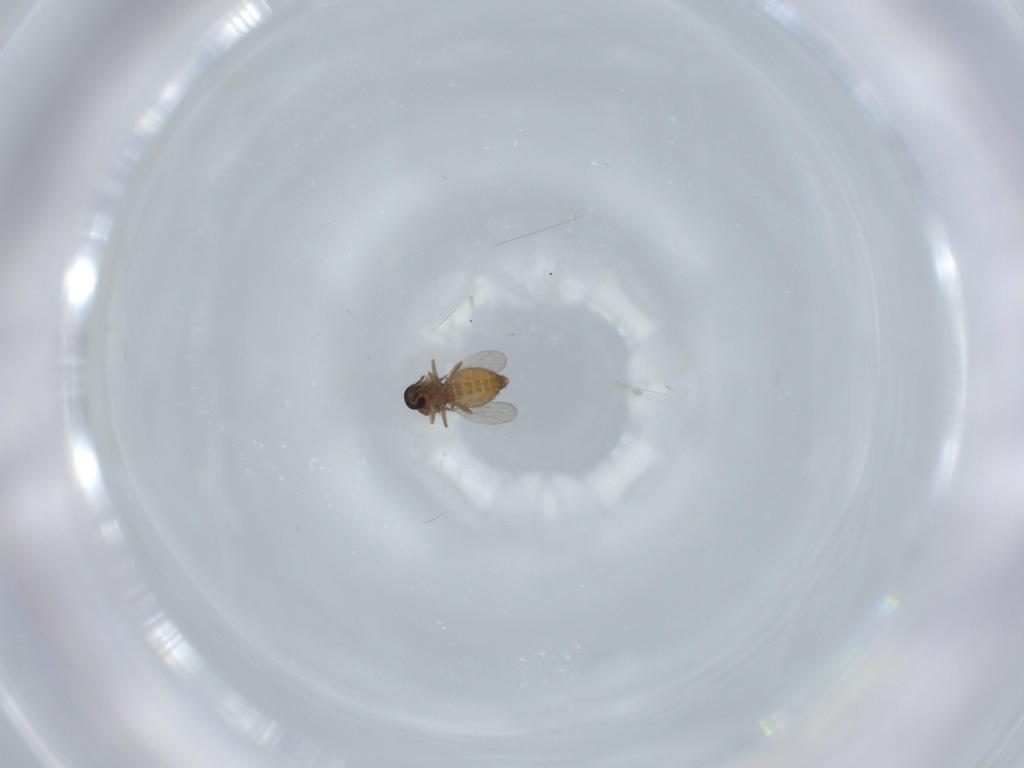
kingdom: Animalia
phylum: Arthropoda
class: Insecta
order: Diptera
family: Ceratopogonidae
